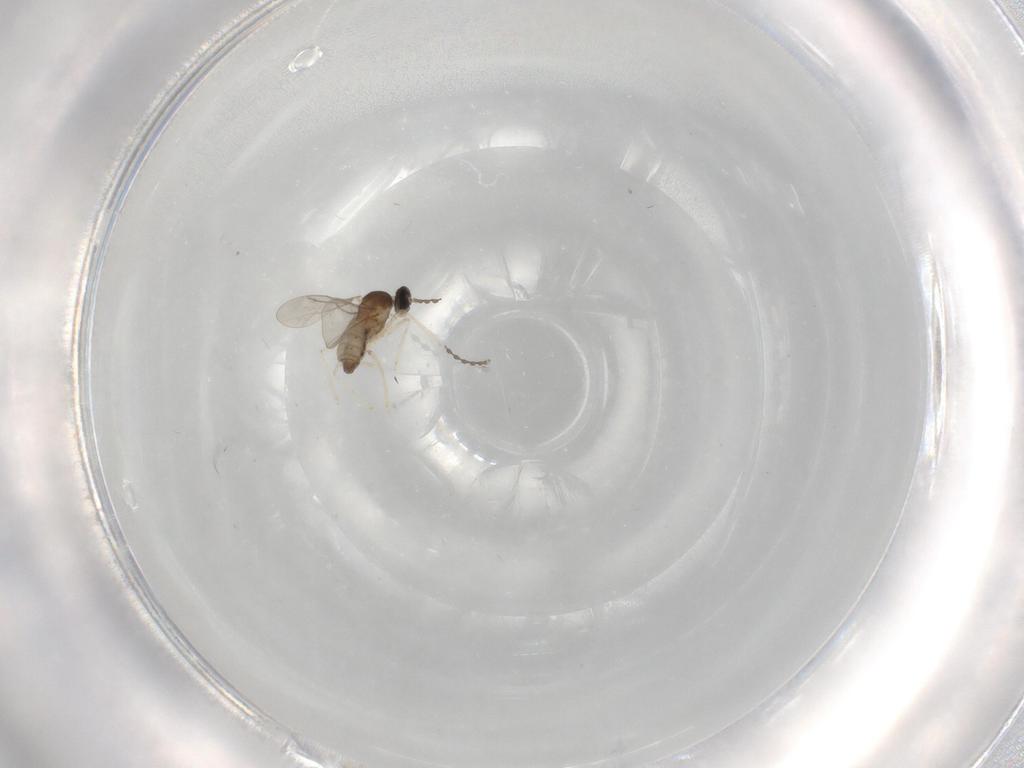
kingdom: Animalia
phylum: Arthropoda
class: Insecta
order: Diptera
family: Cecidomyiidae
